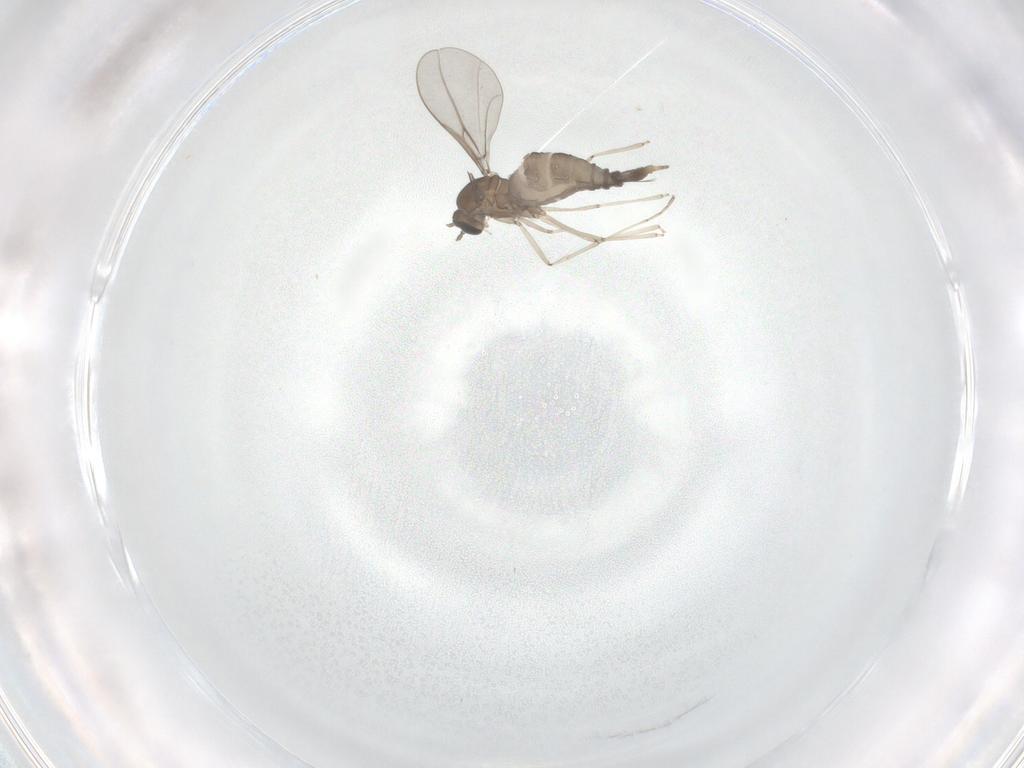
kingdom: Animalia
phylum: Arthropoda
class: Insecta
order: Diptera
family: Cecidomyiidae
